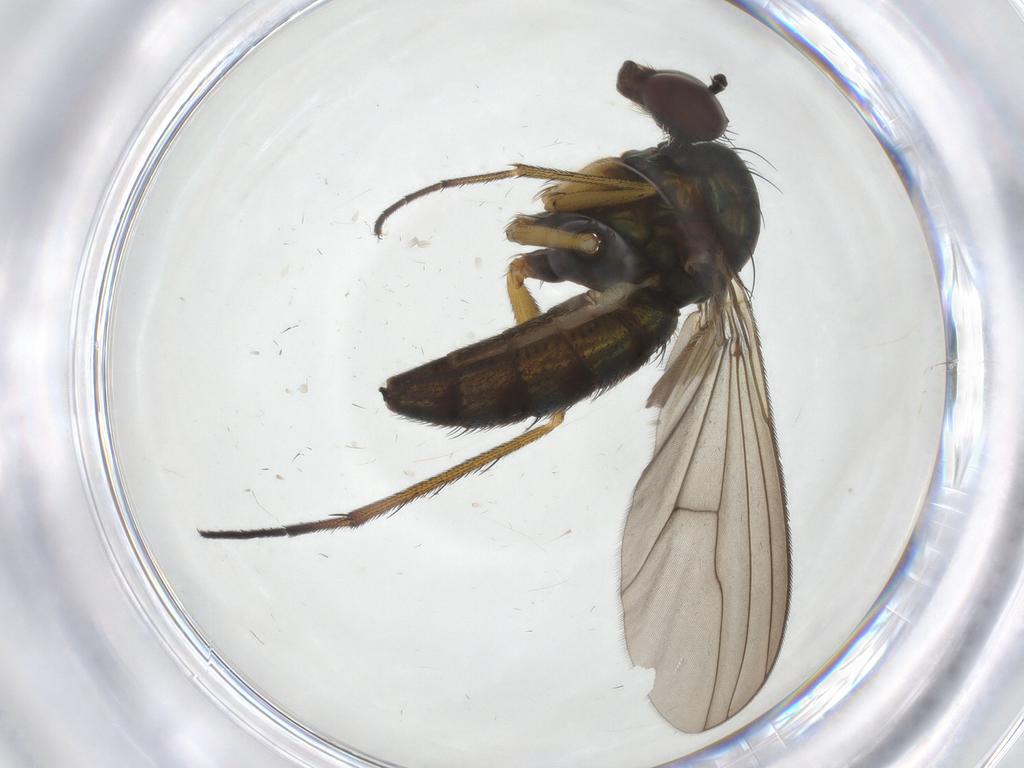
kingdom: Animalia
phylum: Arthropoda
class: Insecta
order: Diptera
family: Dolichopodidae
